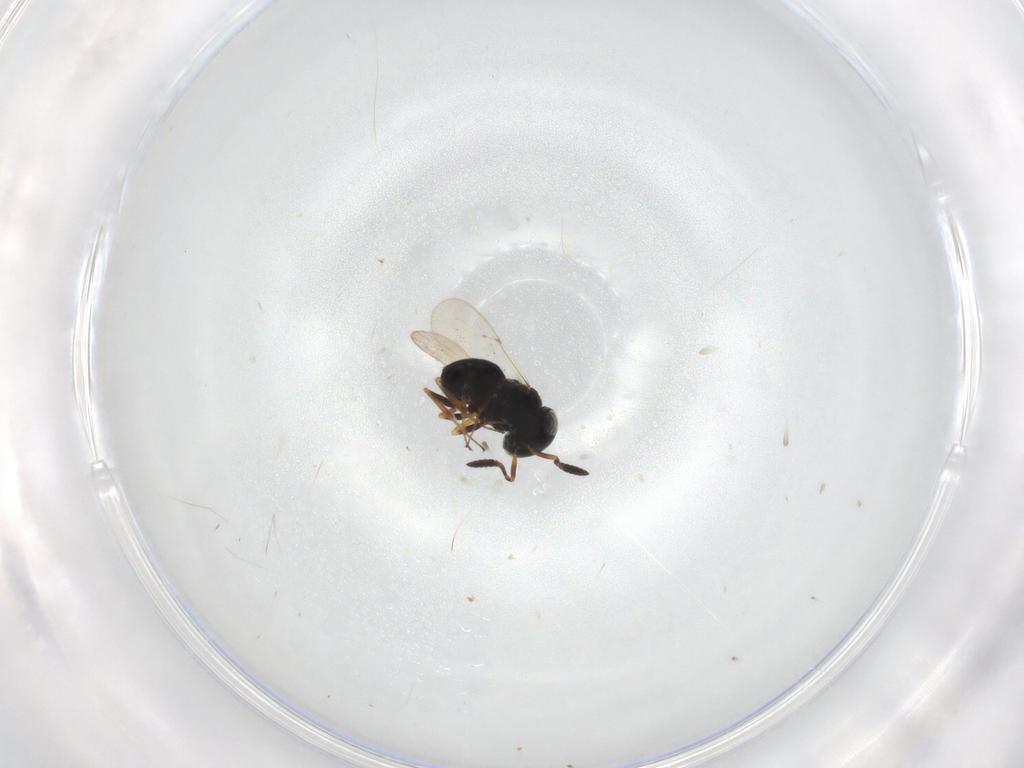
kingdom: Animalia
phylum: Arthropoda
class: Insecta
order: Coleoptera
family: Curculionidae
